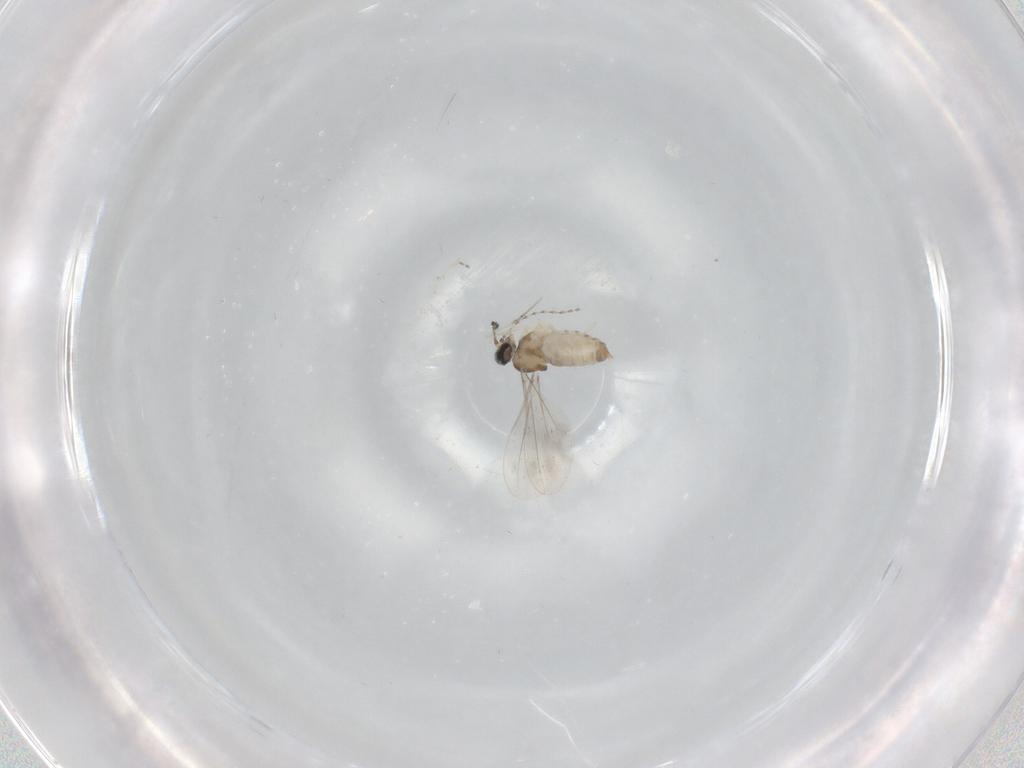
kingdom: Animalia
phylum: Arthropoda
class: Insecta
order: Diptera
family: Cecidomyiidae
